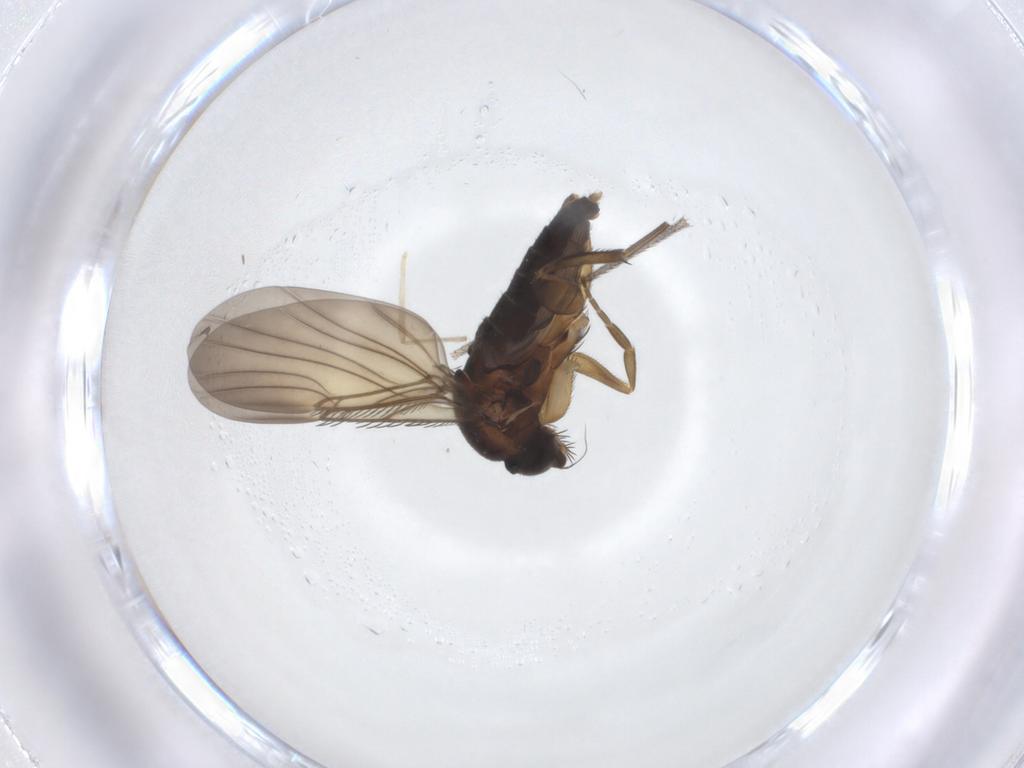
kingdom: Animalia
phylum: Arthropoda
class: Insecta
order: Diptera
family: Phoridae
